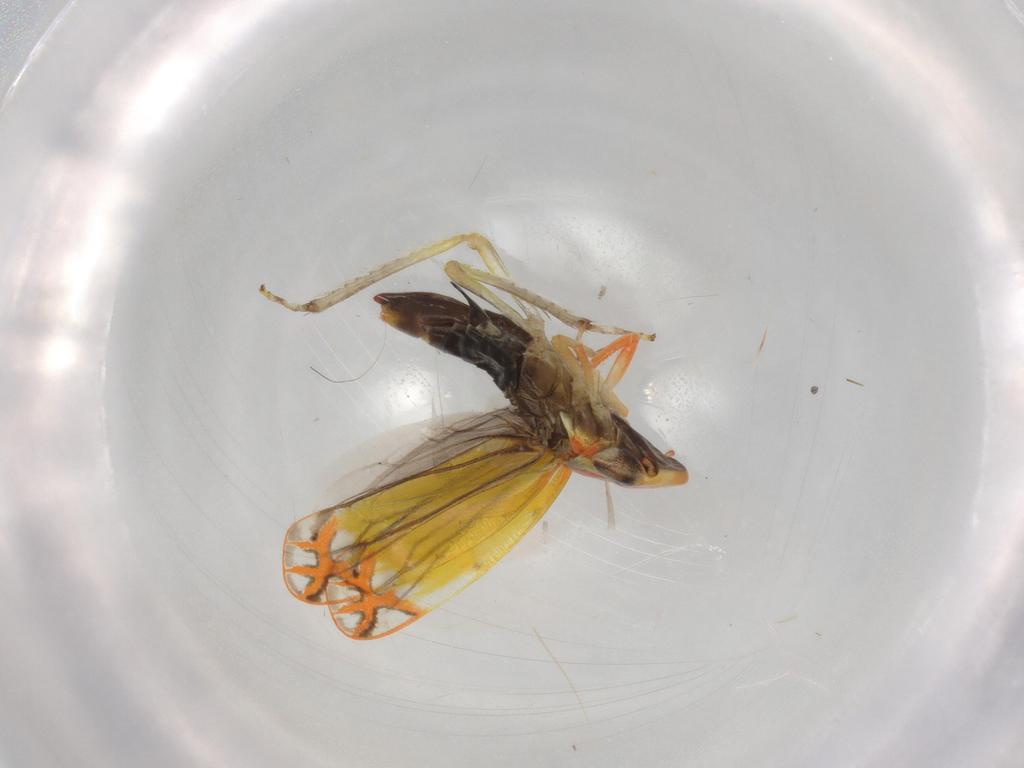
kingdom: Animalia
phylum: Arthropoda
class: Insecta
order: Hemiptera
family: Cicadellidae
